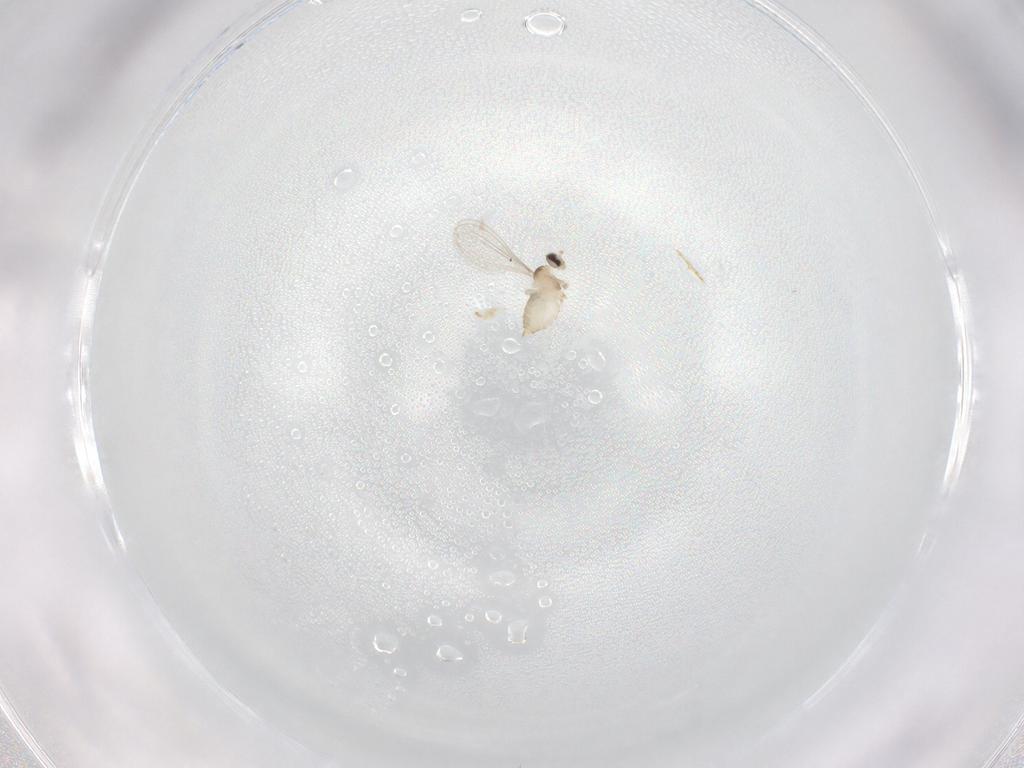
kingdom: Animalia
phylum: Arthropoda
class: Insecta
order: Diptera
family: Cecidomyiidae
